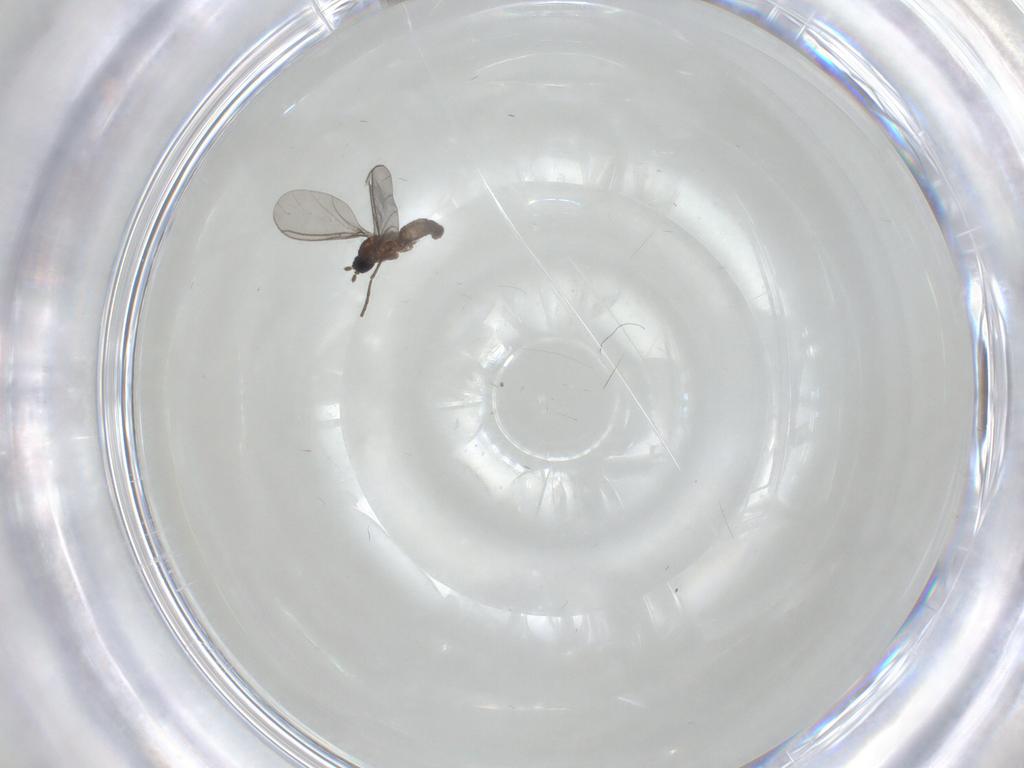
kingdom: Animalia
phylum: Arthropoda
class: Insecta
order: Diptera
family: Sciaridae
